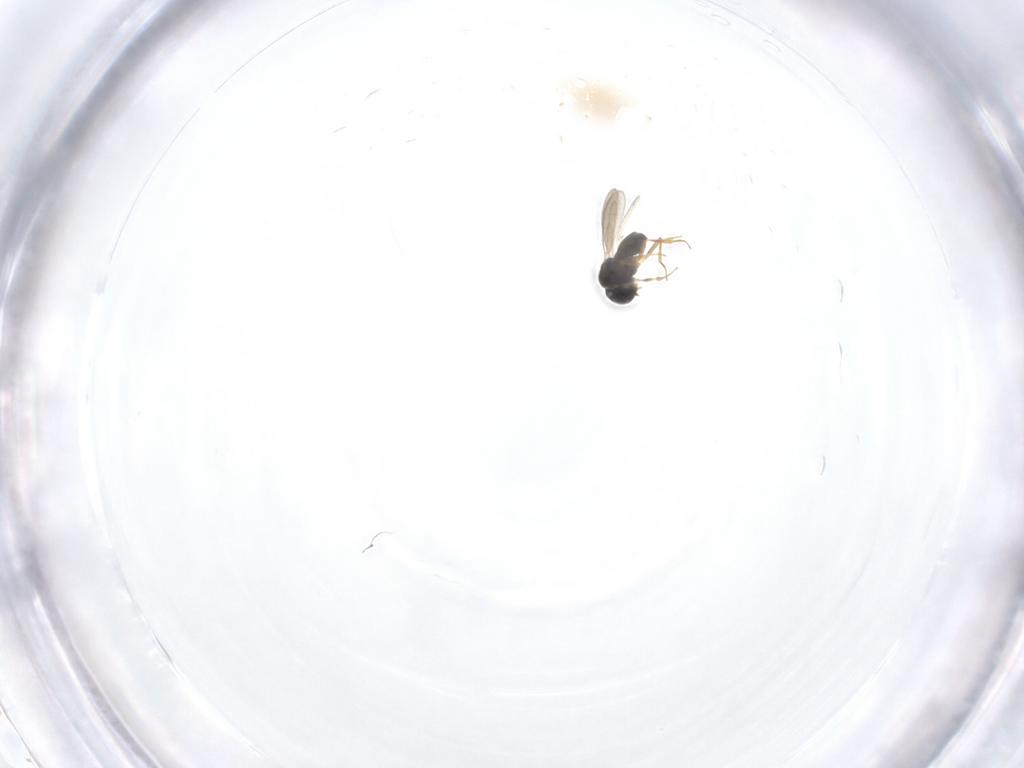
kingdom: Animalia
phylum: Arthropoda
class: Insecta
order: Hymenoptera
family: Scelionidae
